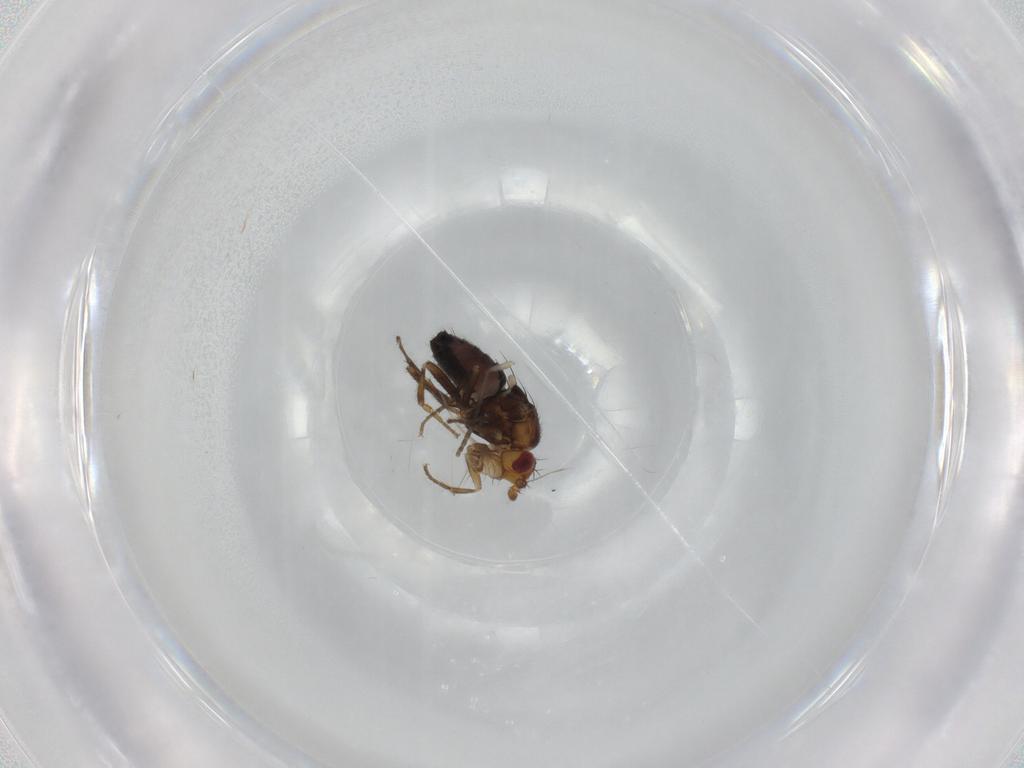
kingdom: Animalia
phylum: Arthropoda
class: Insecta
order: Diptera
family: Sphaeroceridae
